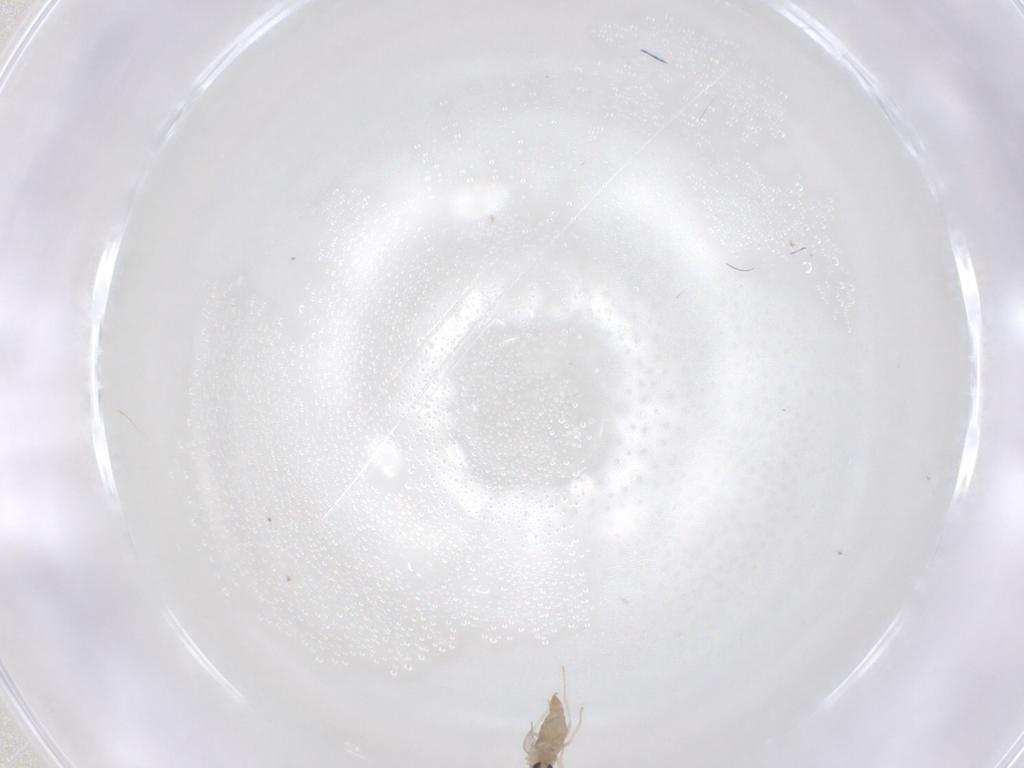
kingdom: Animalia
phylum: Arthropoda
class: Insecta
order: Diptera
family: Cecidomyiidae
